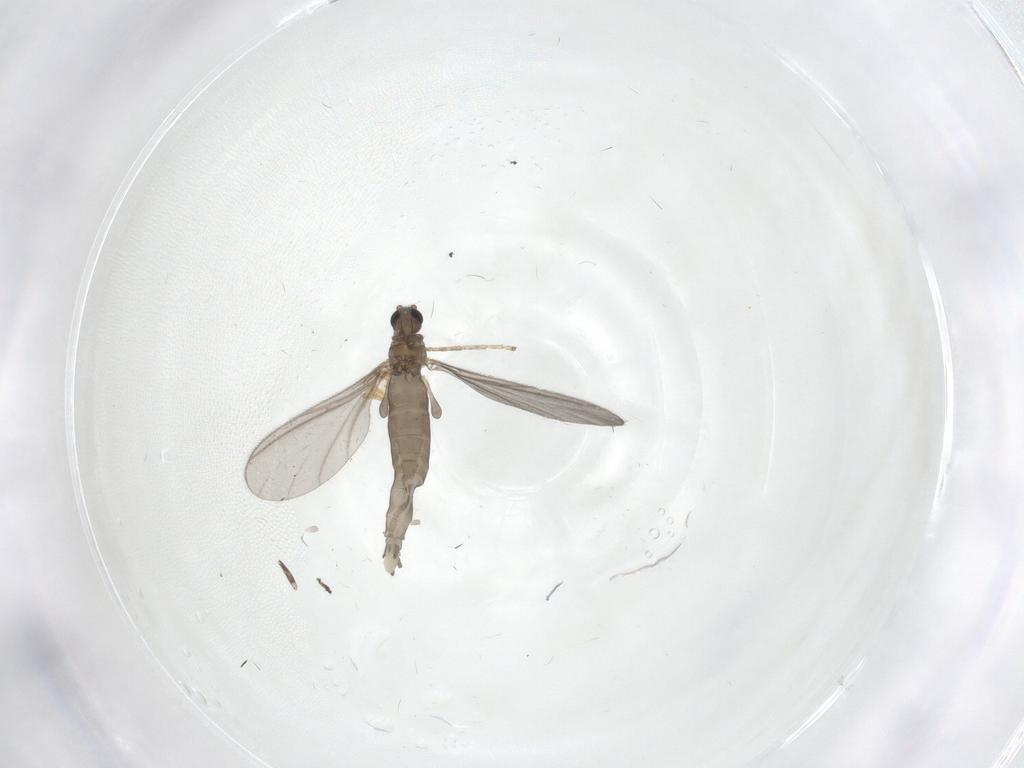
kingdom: Animalia
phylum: Arthropoda
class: Insecta
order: Diptera
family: Sciaridae
